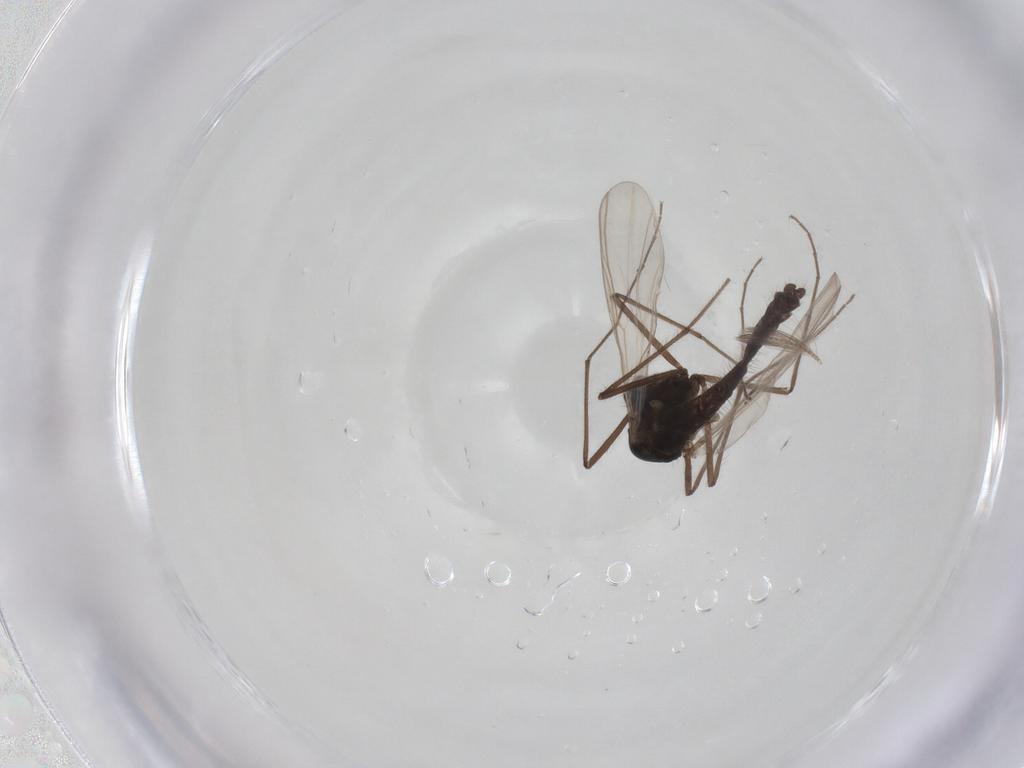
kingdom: Animalia
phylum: Arthropoda
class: Insecta
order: Diptera
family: Chironomidae
